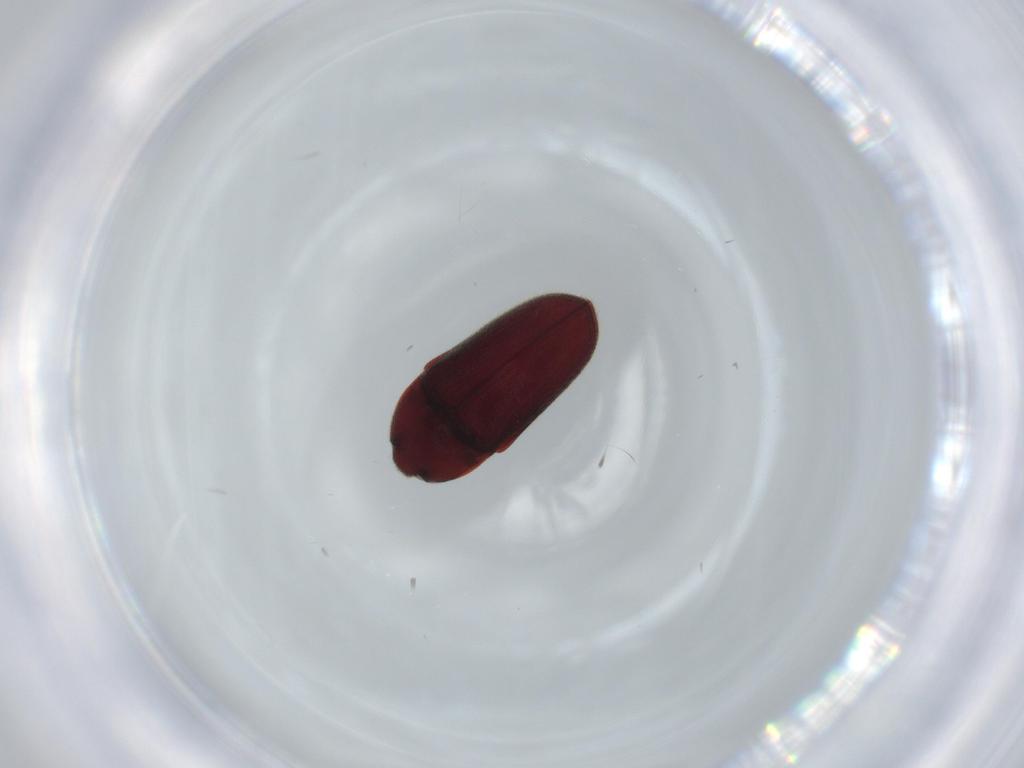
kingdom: Animalia
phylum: Arthropoda
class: Insecta
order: Coleoptera
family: Throscidae
